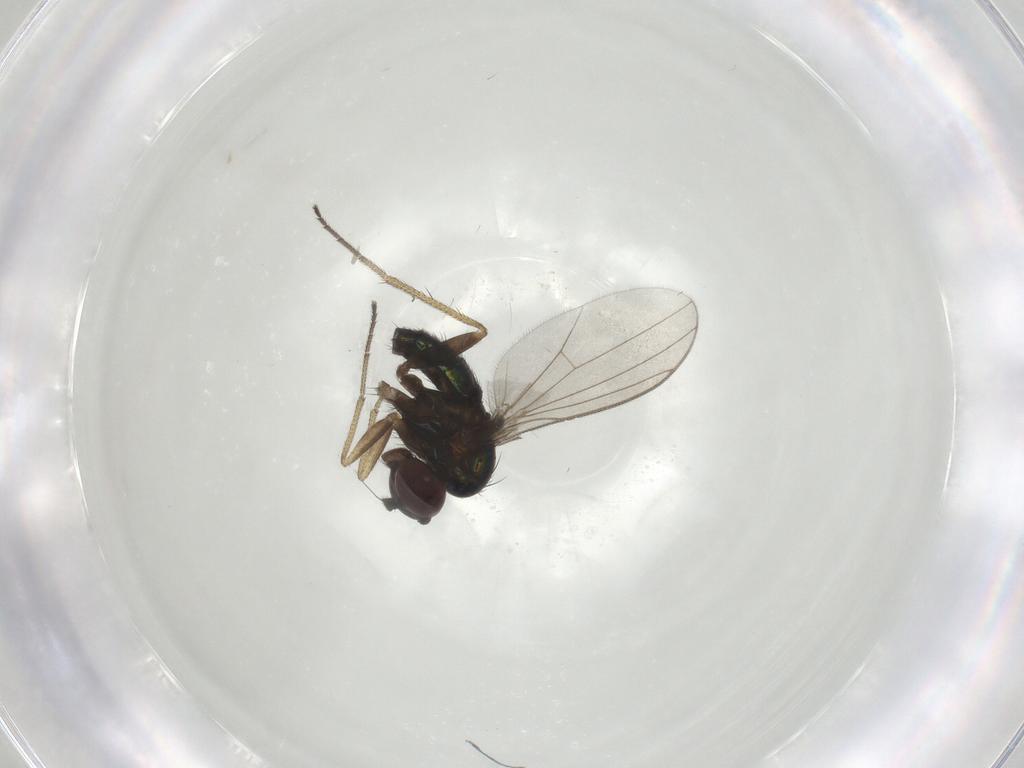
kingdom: Animalia
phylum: Arthropoda
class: Insecta
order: Diptera
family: Dolichopodidae
